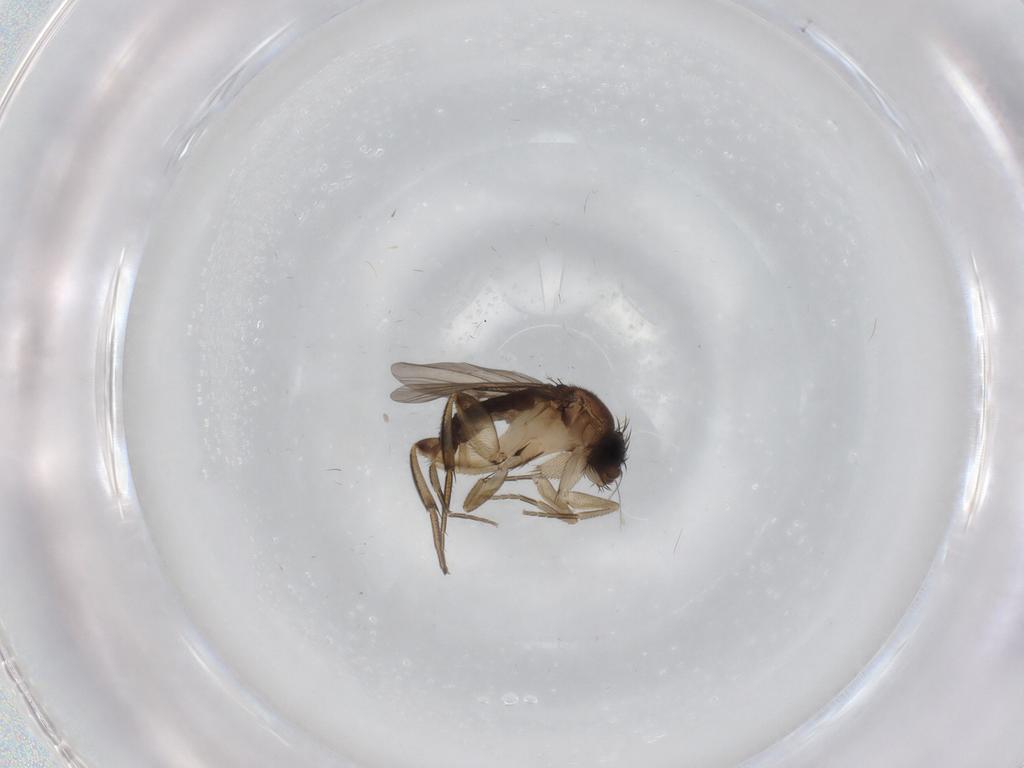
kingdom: Animalia
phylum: Arthropoda
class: Insecta
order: Diptera
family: Phoridae
